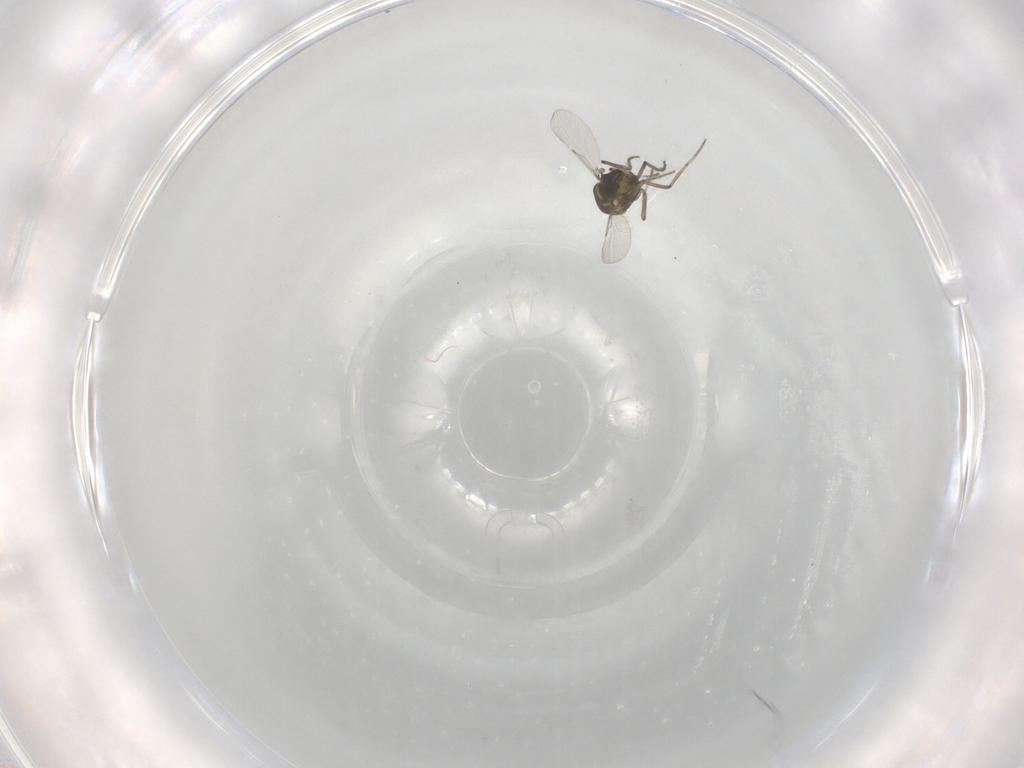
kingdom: Animalia
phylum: Arthropoda
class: Insecta
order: Diptera
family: Ceratopogonidae
